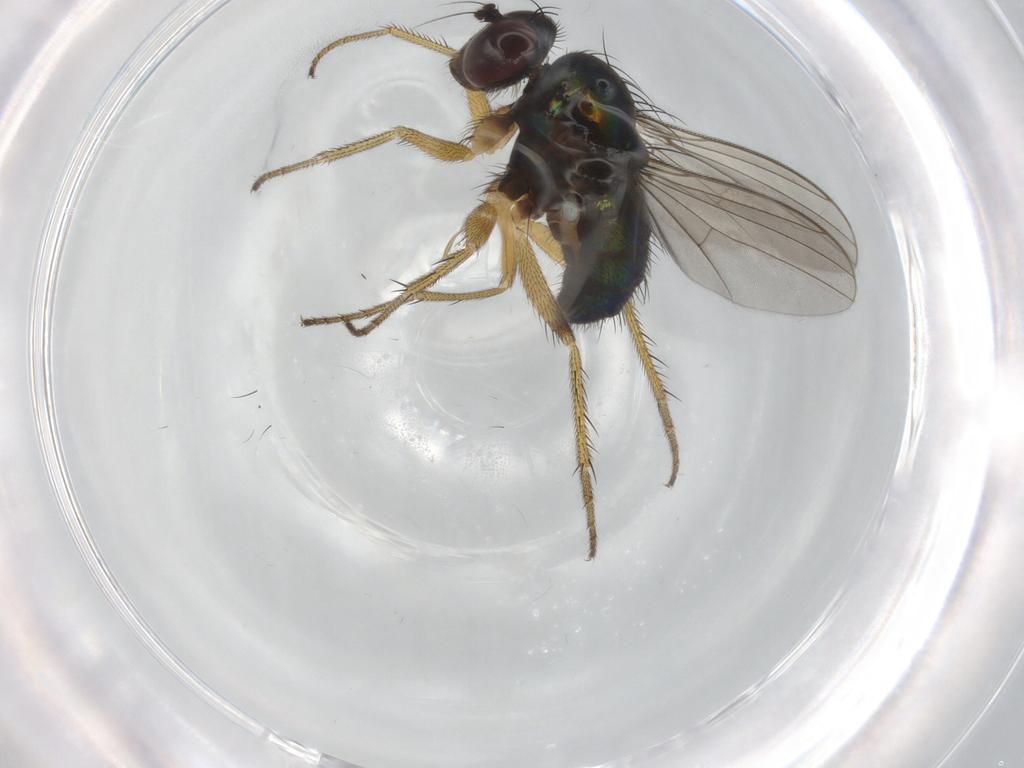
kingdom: Animalia
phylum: Arthropoda
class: Insecta
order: Diptera
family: Dolichopodidae
